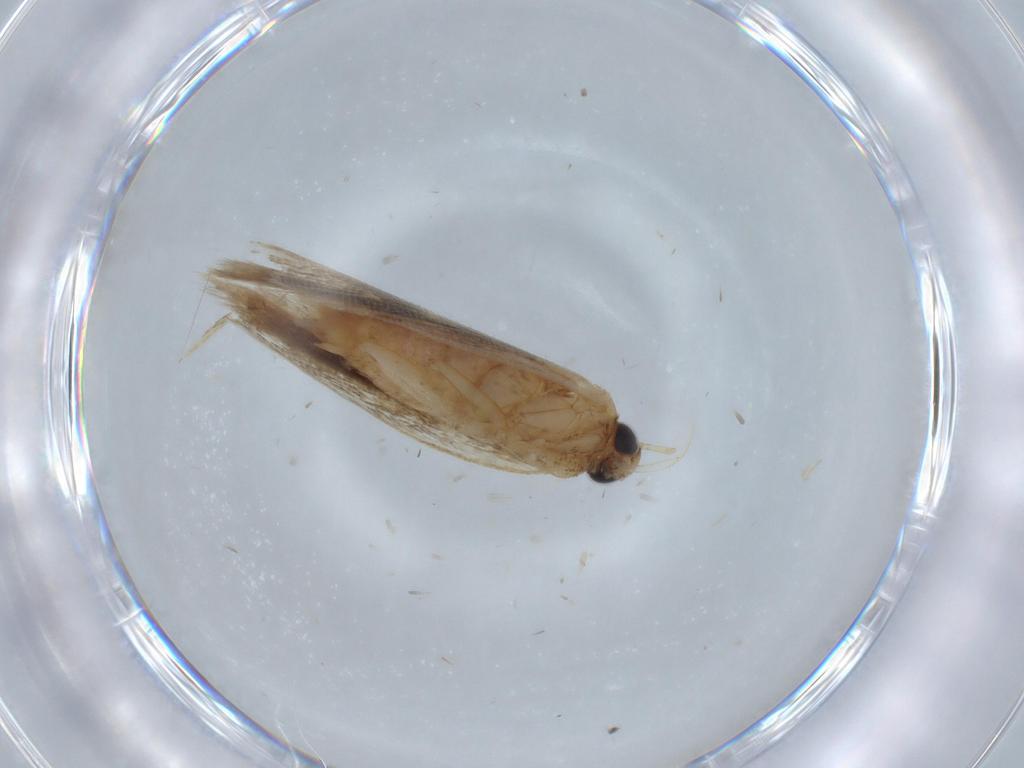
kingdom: Animalia
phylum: Arthropoda
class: Insecta
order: Lepidoptera
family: Gelechiidae
